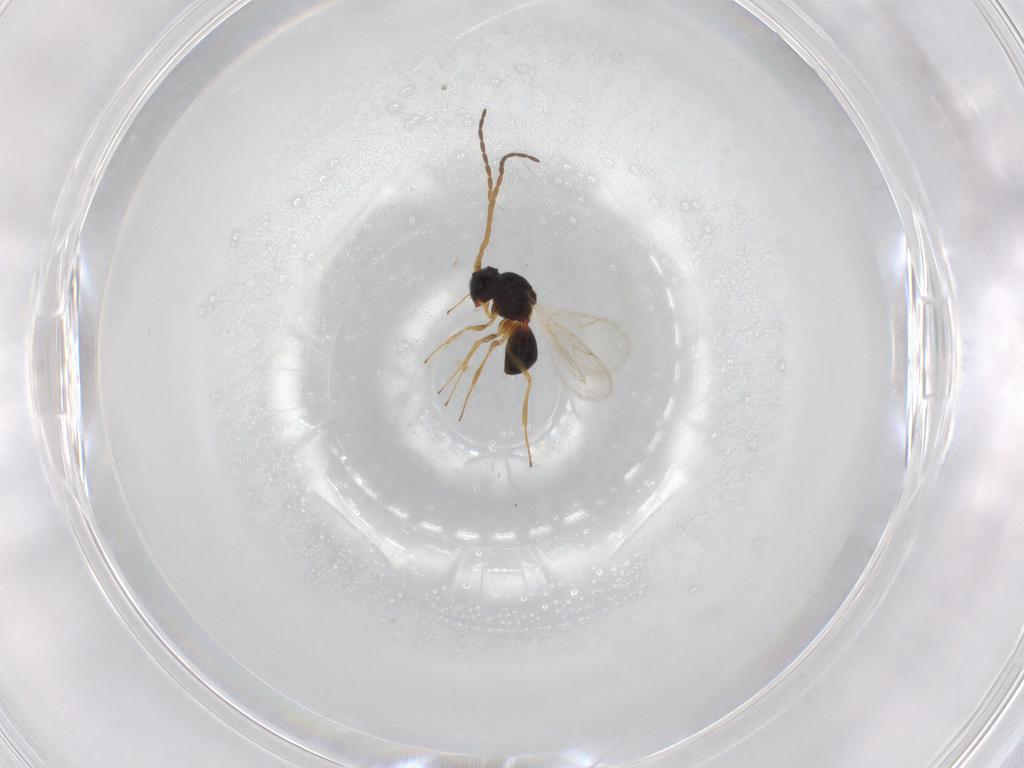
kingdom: Animalia
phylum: Arthropoda
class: Insecta
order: Hymenoptera
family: Figitidae
